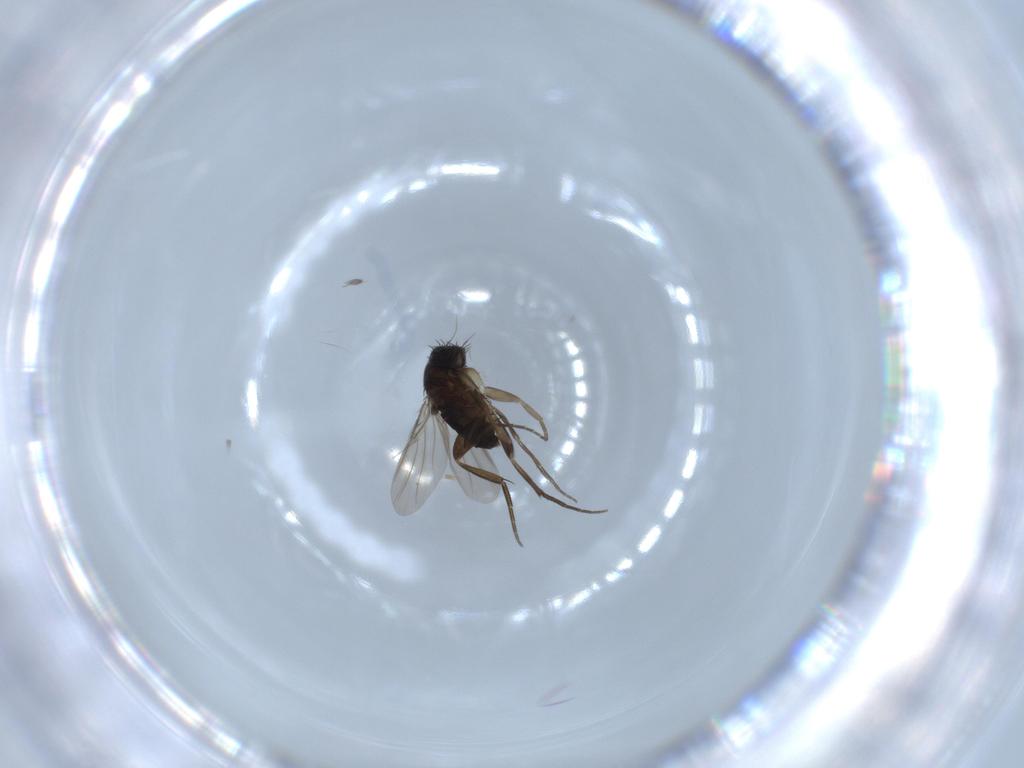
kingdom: Animalia
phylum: Arthropoda
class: Insecta
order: Diptera
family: Phoridae
